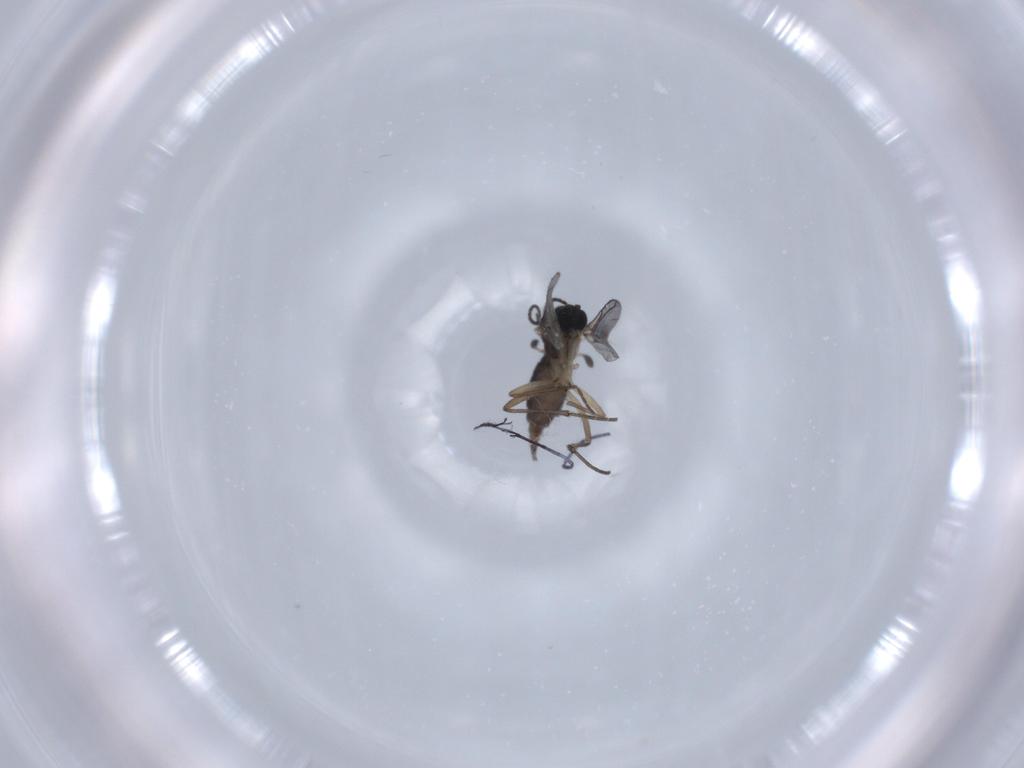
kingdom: Animalia
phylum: Arthropoda
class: Insecta
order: Diptera
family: Sciaridae
